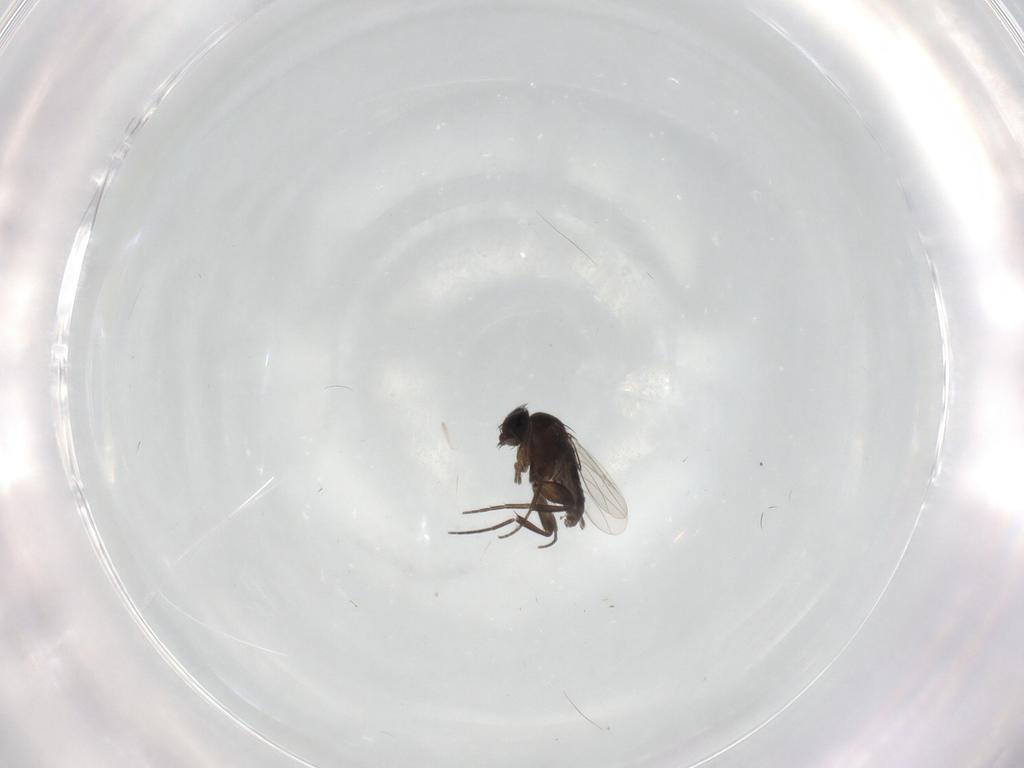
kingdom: Animalia
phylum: Arthropoda
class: Insecta
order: Diptera
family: Phoridae
